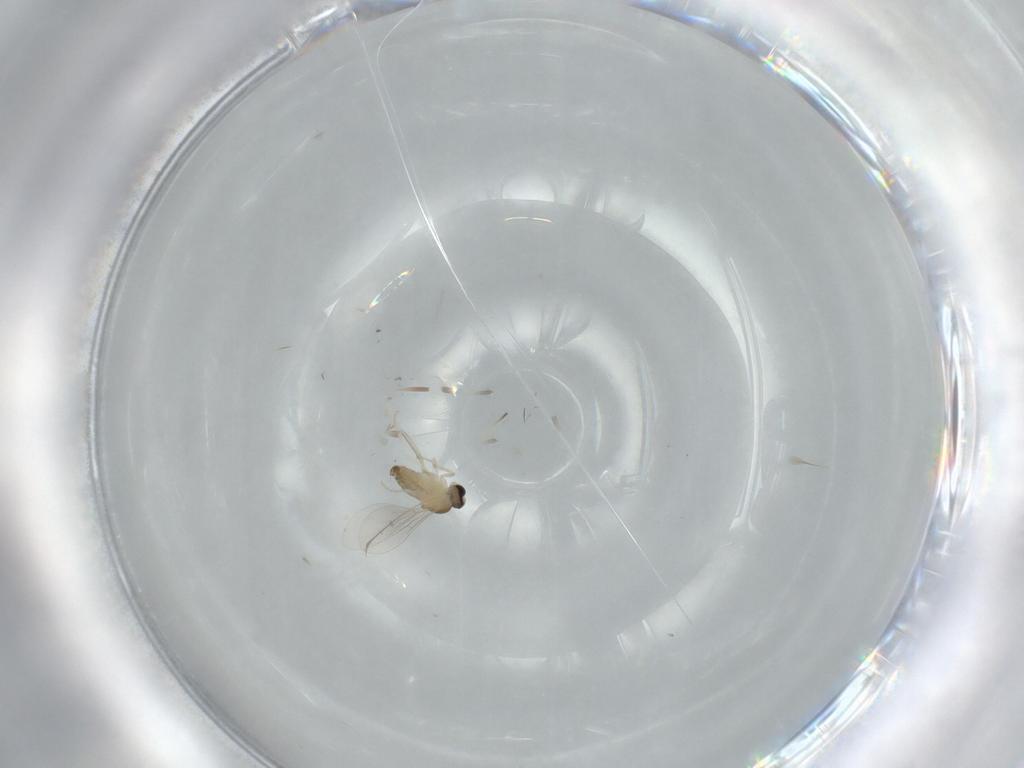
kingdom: Animalia
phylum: Arthropoda
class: Insecta
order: Diptera
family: Cecidomyiidae
